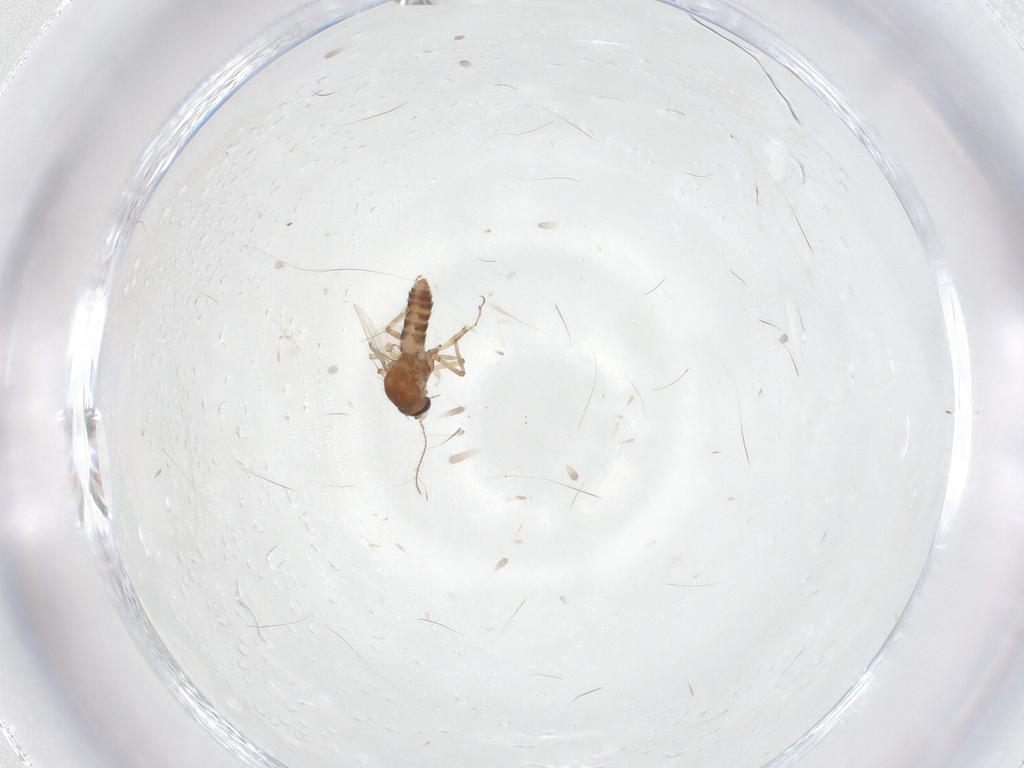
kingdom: Animalia
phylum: Arthropoda
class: Insecta
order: Diptera
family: Ceratopogonidae
